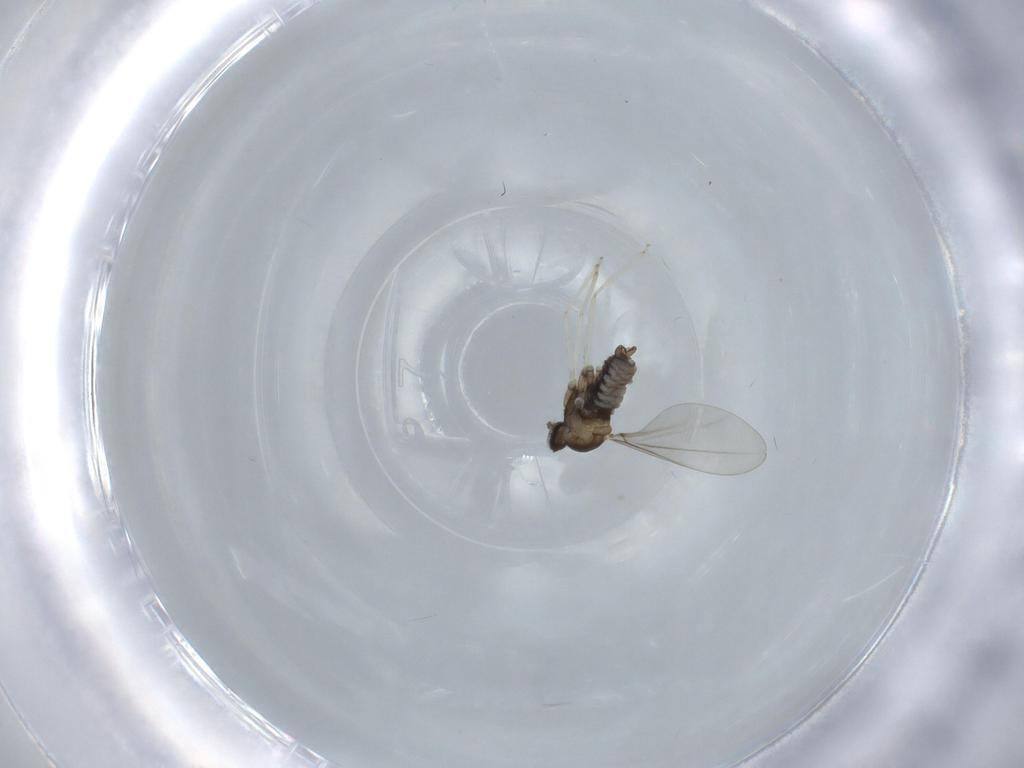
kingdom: Animalia
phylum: Arthropoda
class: Insecta
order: Diptera
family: Cecidomyiidae
